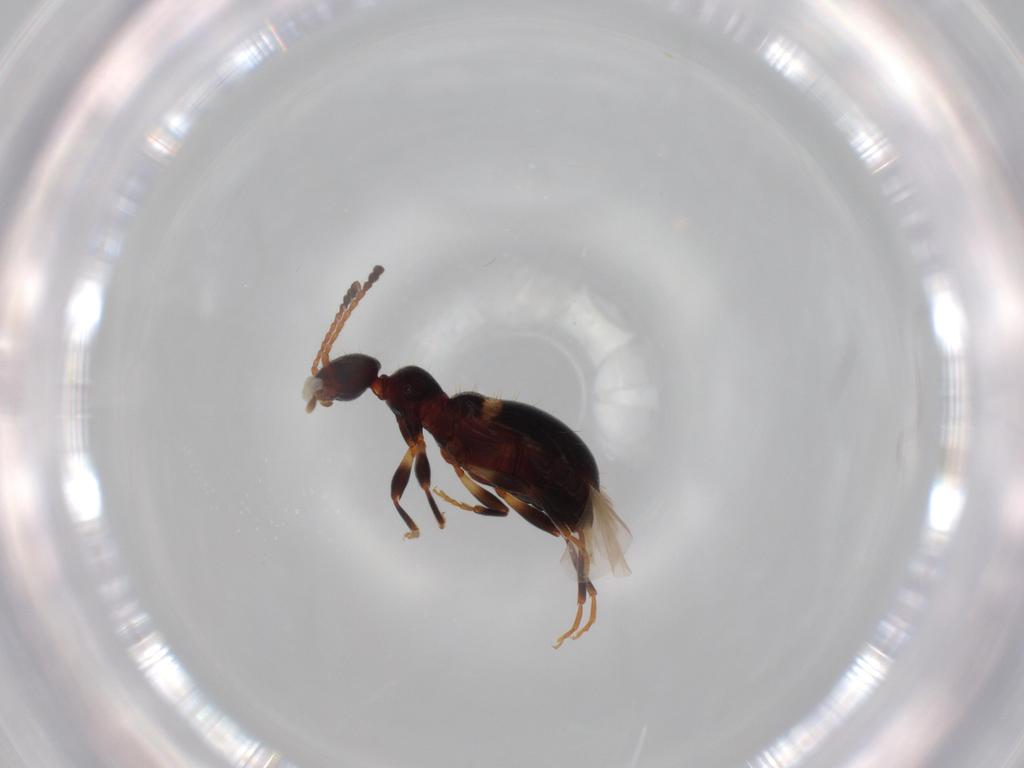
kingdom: Animalia
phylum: Arthropoda
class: Insecta
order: Coleoptera
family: Anthicidae
